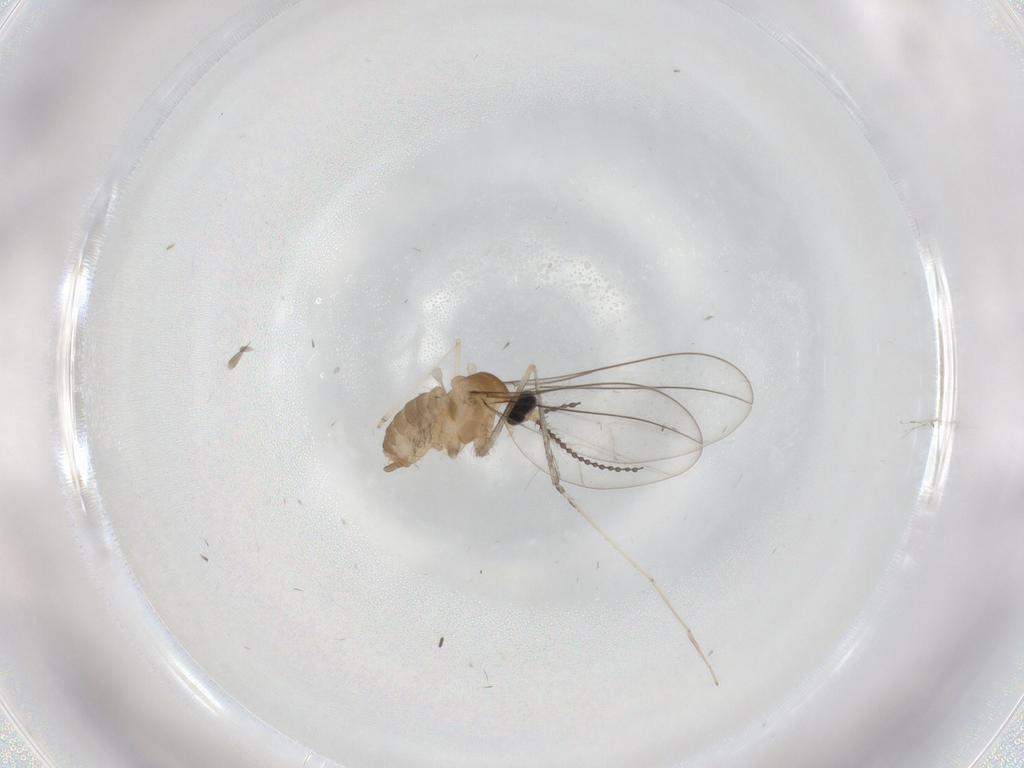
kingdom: Animalia
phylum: Arthropoda
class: Insecta
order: Diptera
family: Cecidomyiidae
